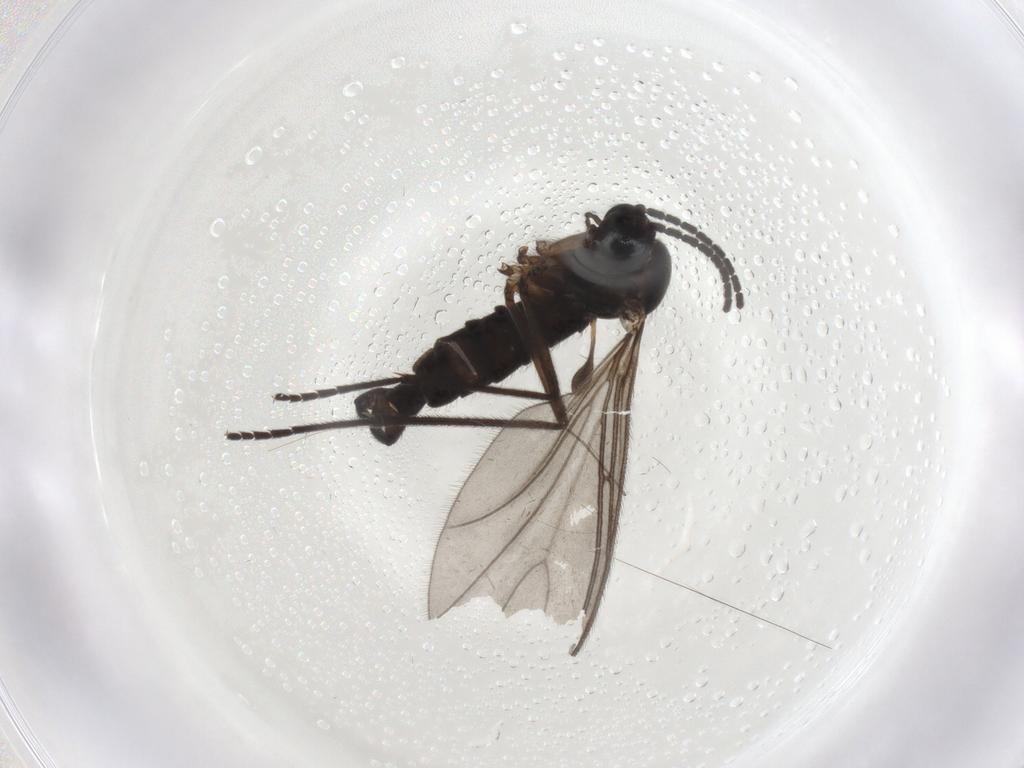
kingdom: Animalia
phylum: Arthropoda
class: Insecta
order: Diptera
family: Sciaridae
